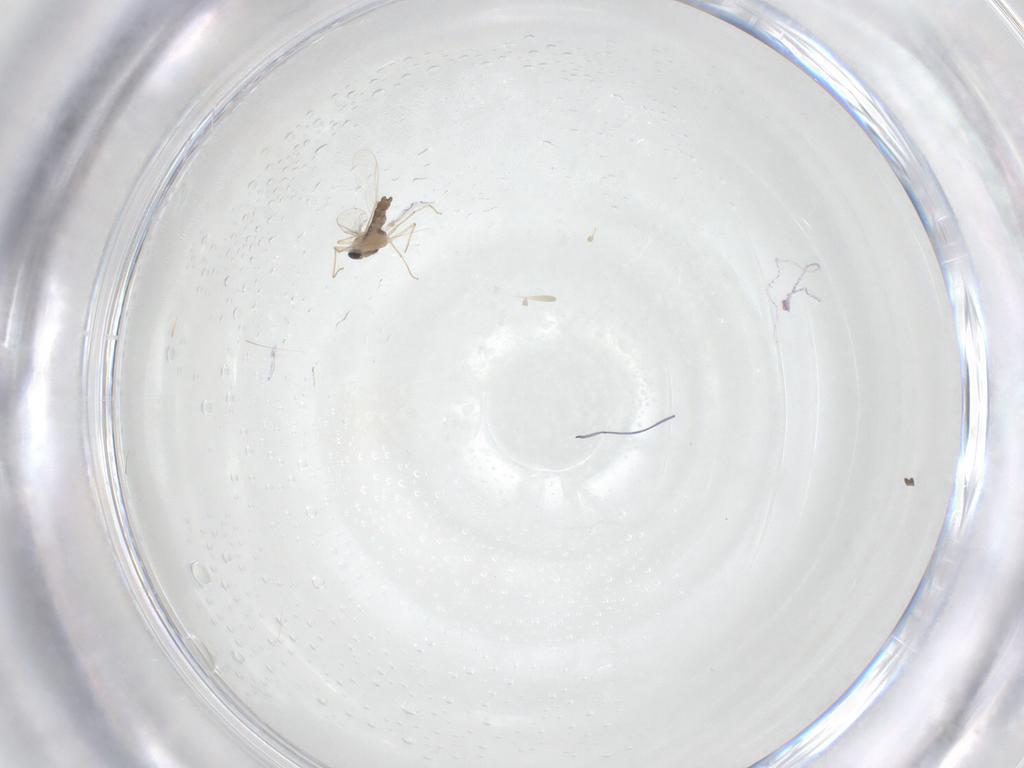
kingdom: Animalia
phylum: Arthropoda
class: Insecta
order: Diptera
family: Chironomidae
